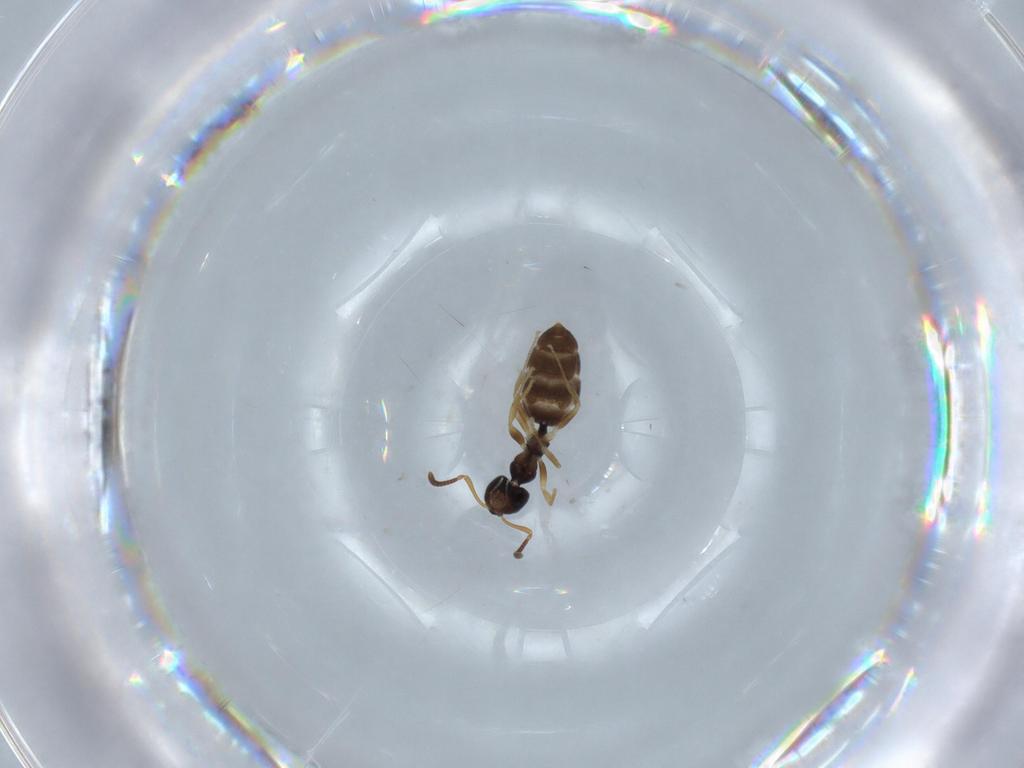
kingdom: Animalia
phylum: Arthropoda
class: Insecta
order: Hymenoptera
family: Formicidae
